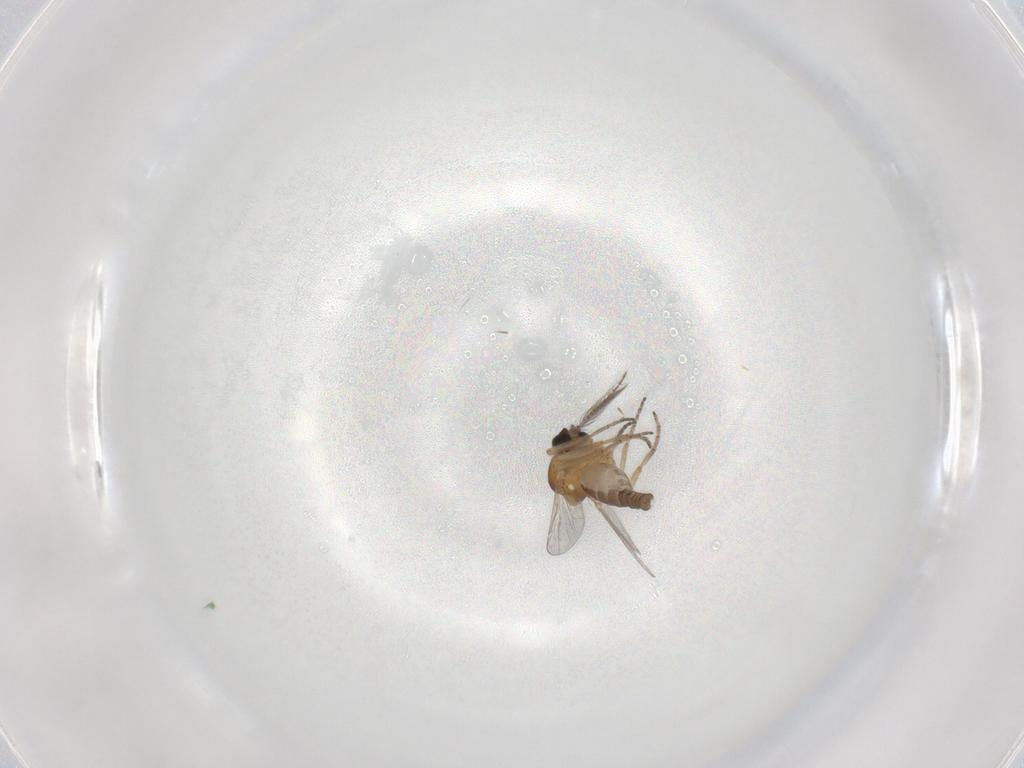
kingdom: Animalia
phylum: Arthropoda
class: Insecta
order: Diptera
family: Ceratopogonidae
